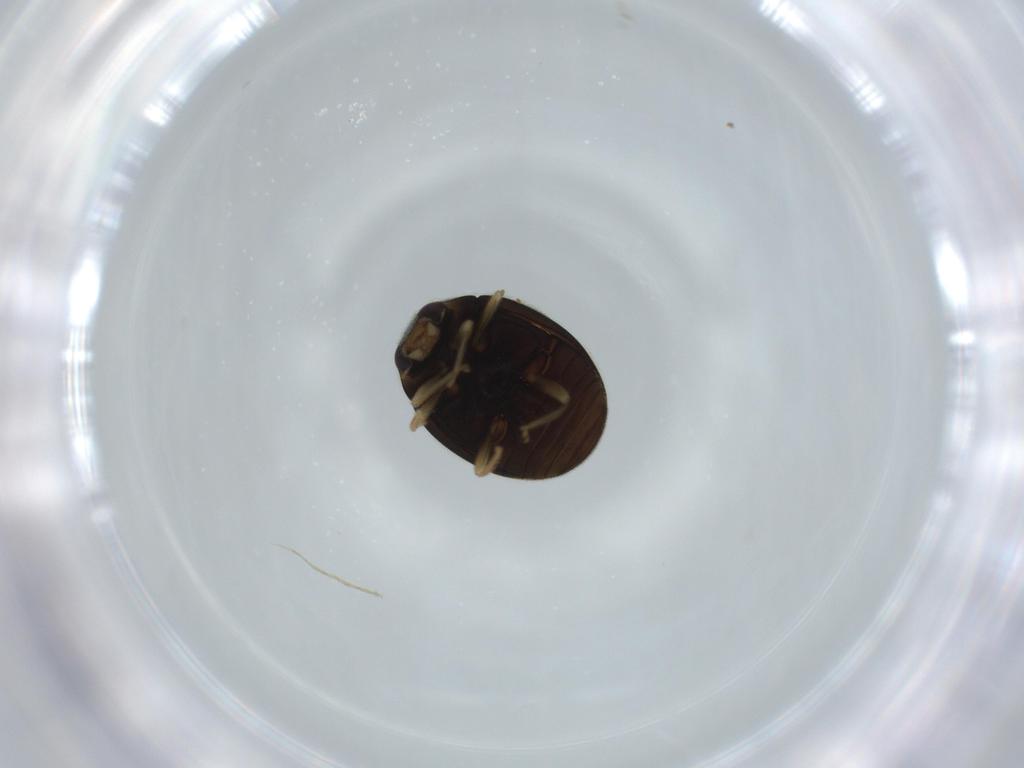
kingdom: Animalia
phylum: Arthropoda
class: Insecta
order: Coleoptera
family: Coccinellidae
